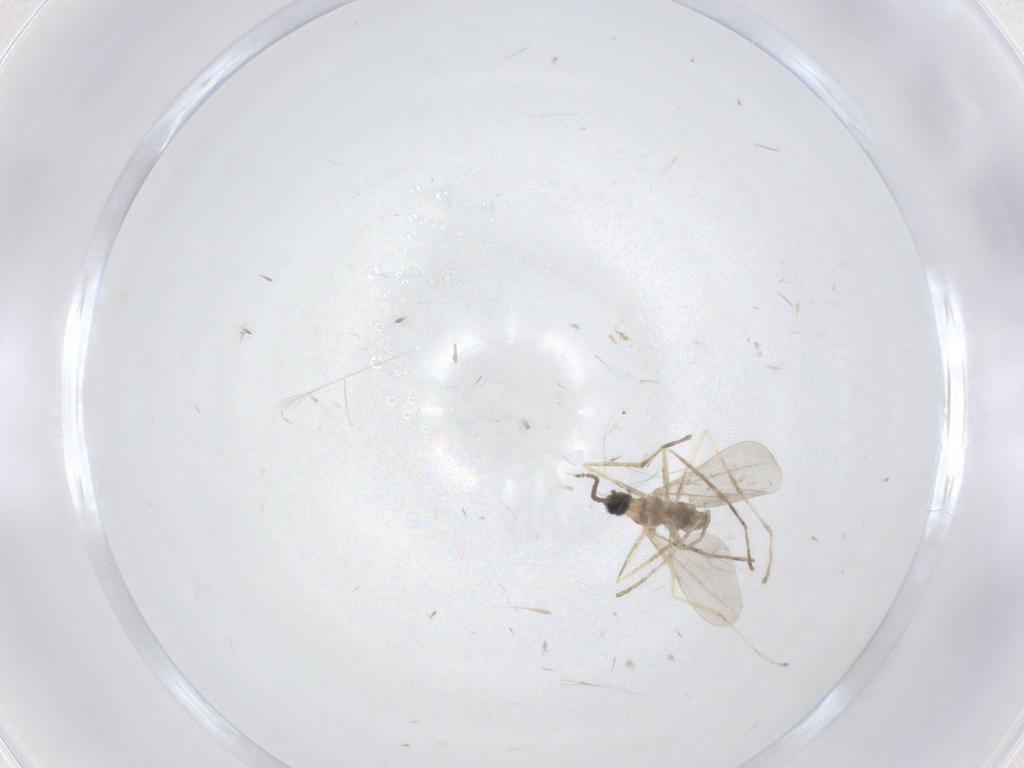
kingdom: Animalia
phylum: Arthropoda
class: Insecta
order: Diptera
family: Cecidomyiidae
